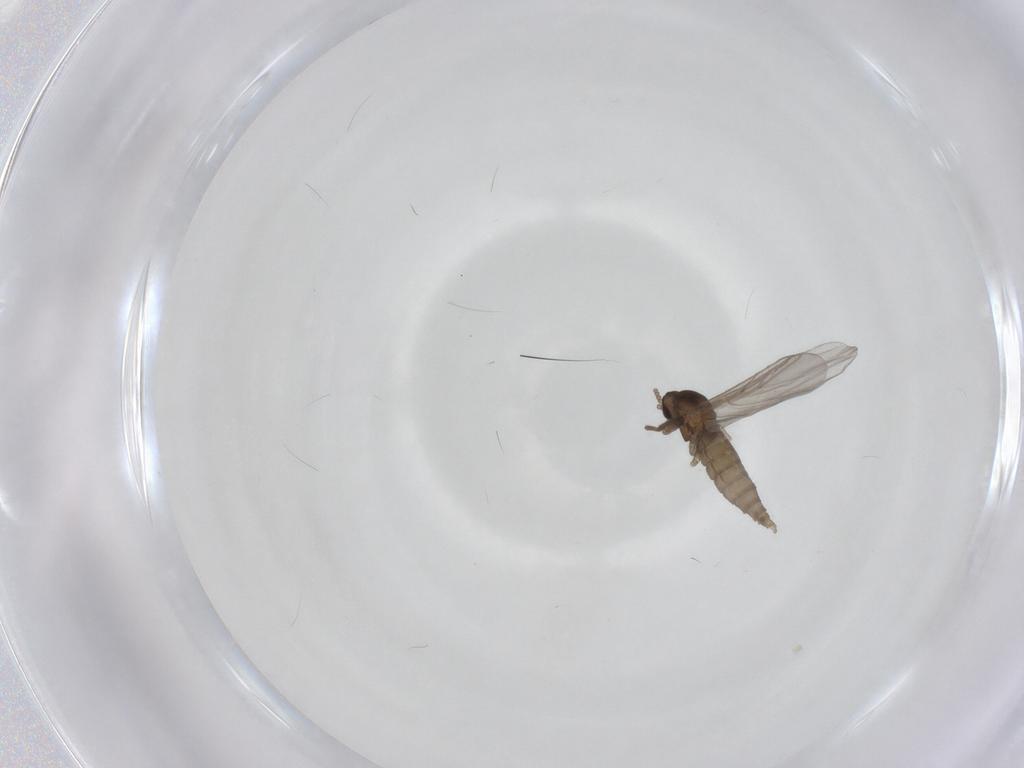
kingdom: Animalia
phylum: Arthropoda
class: Insecta
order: Diptera
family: Cecidomyiidae
